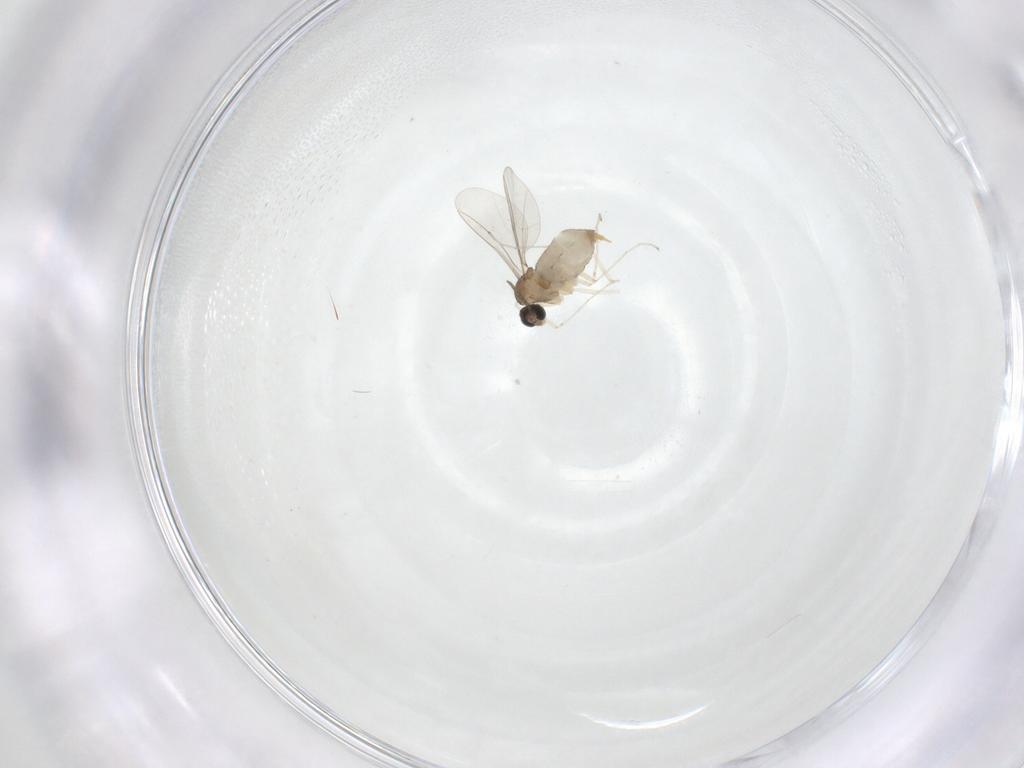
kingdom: Animalia
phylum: Arthropoda
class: Insecta
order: Diptera
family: Cecidomyiidae
